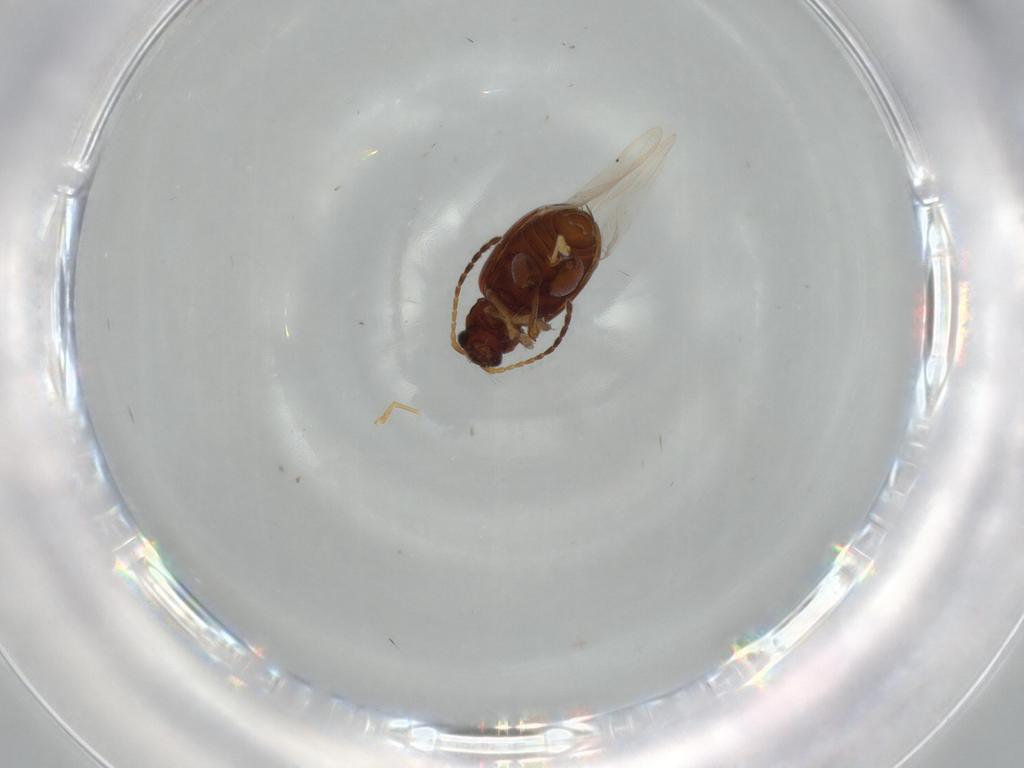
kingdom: Animalia
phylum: Arthropoda
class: Insecta
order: Coleoptera
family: Chrysomelidae
